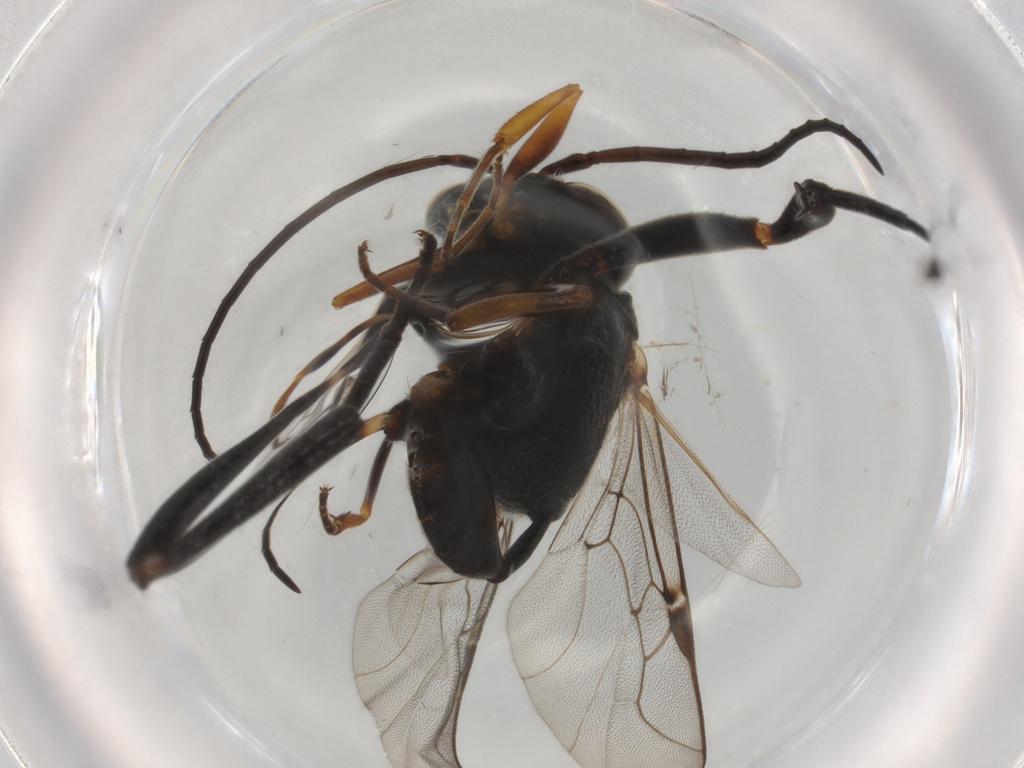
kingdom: Animalia
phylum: Arthropoda
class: Insecta
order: Hymenoptera
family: Evaniidae
